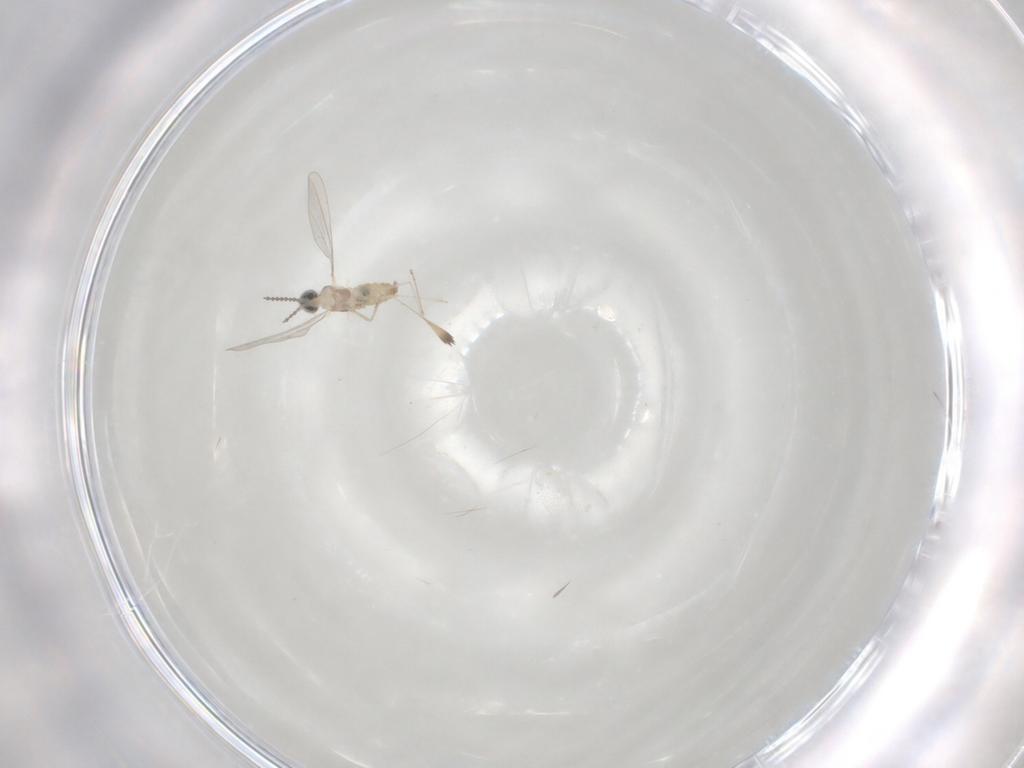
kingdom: Animalia
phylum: Arthropoda
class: Insecta
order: Diptera
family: Cecidomyiidae
